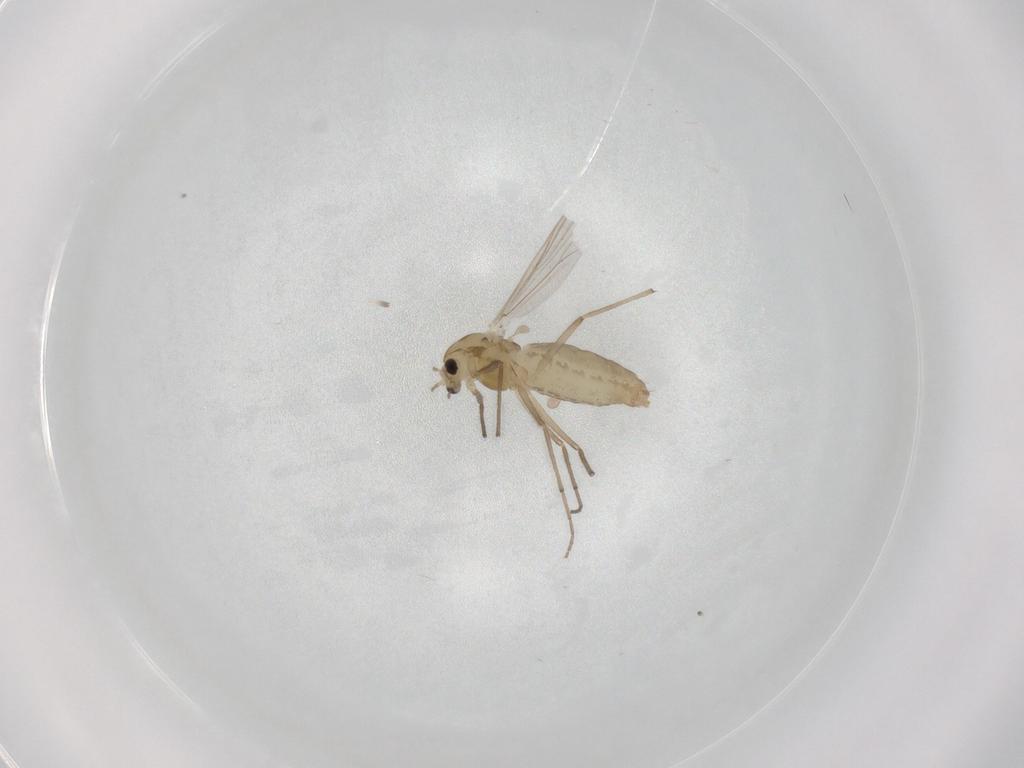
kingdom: Animalia
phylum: Arthropoda
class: Insecta
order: Diptera
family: Chironomidae
